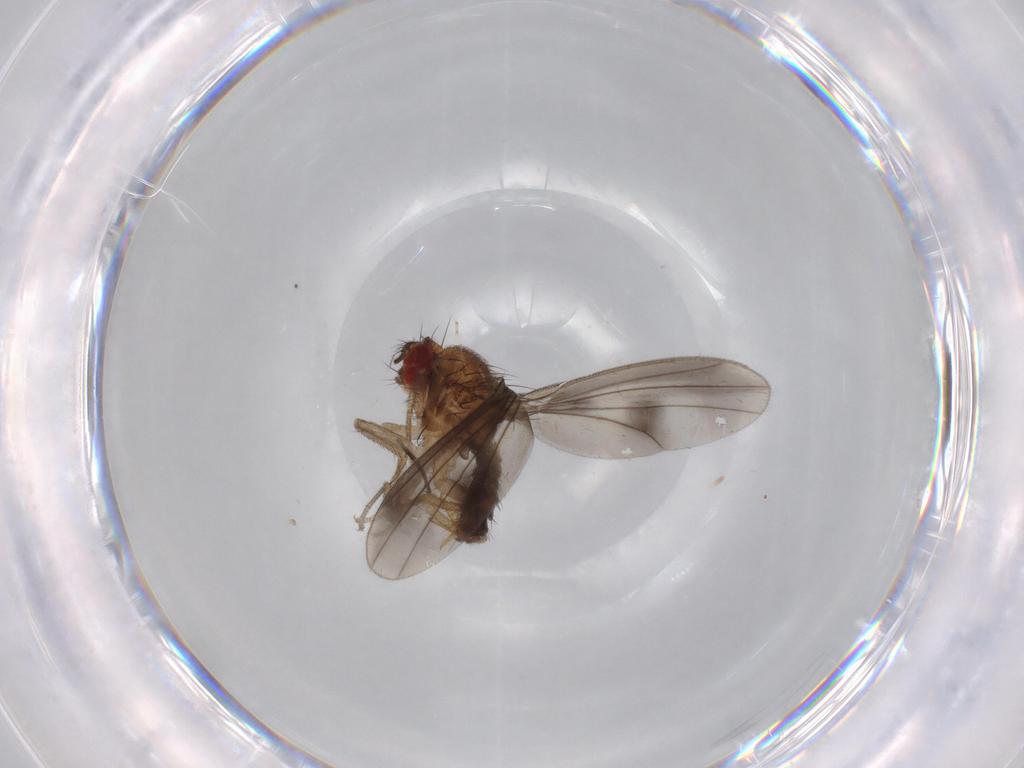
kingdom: Animalia
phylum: Arthropoda
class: Insecta
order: Diptera
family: Drosophilidae
